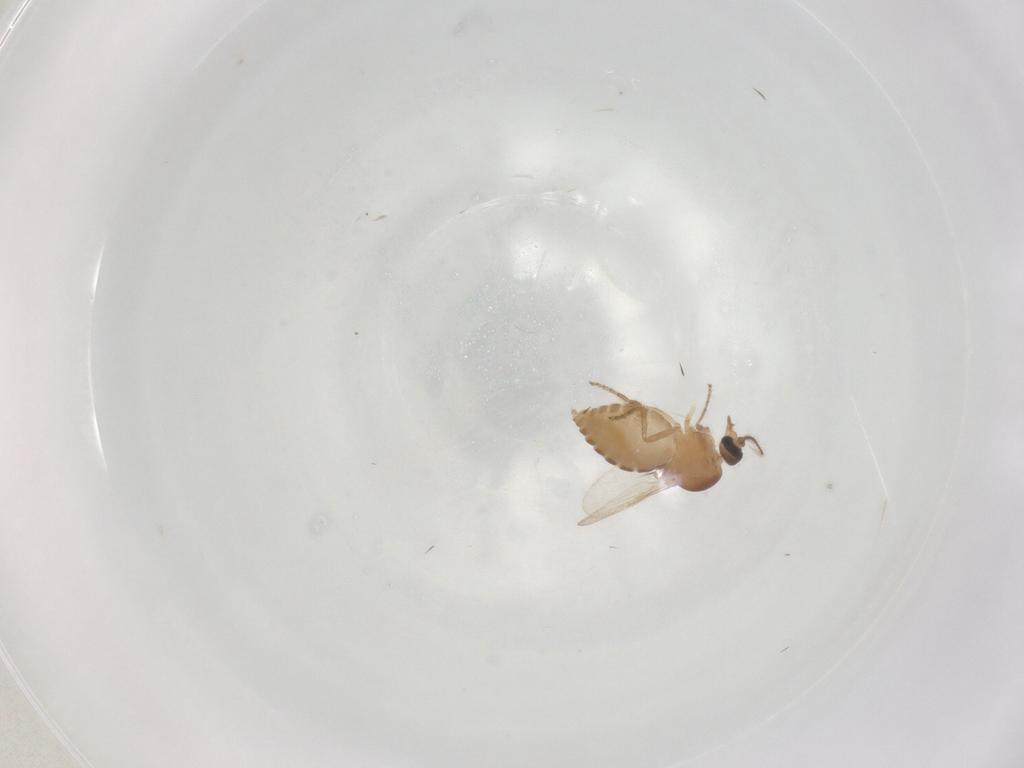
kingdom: Animalia
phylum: Arthropoda
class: Insecta
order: Diptera
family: Ceratopogonidae
